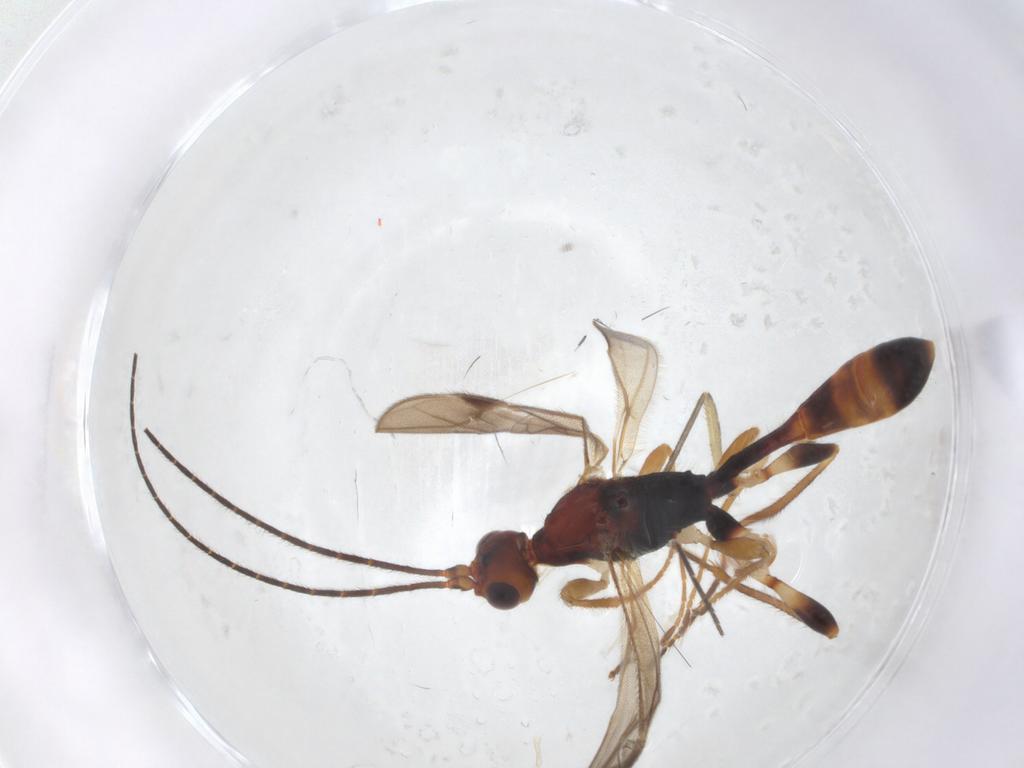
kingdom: Animalia
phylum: Arthropoda
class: Insecta
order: Hymenoptera
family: Braconidae
